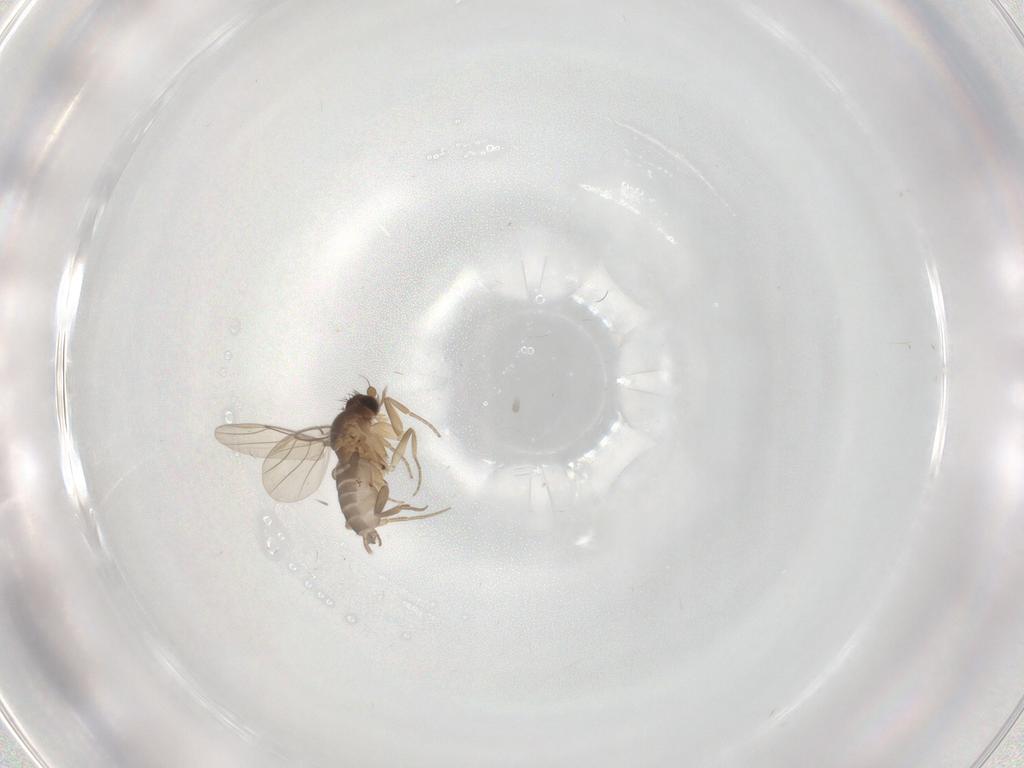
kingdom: Animalia
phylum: Arthropoda
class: Insecta
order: Diptera
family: Phoridae
